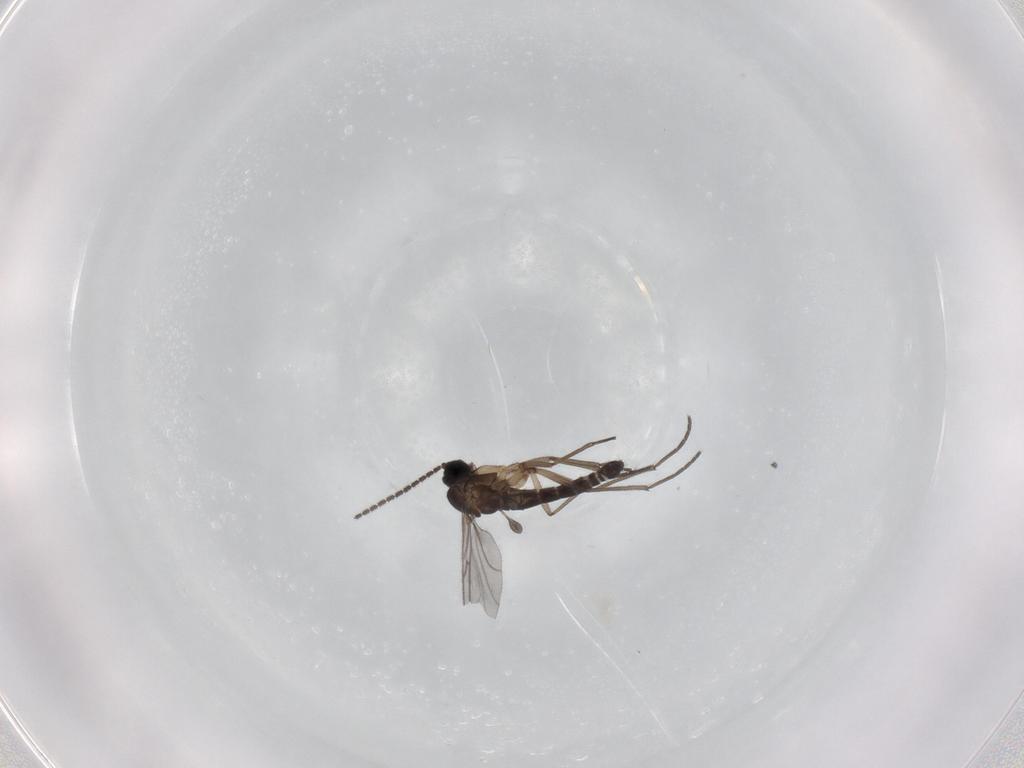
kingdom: Animalia
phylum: Arthropoda
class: Insecta
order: Diptera
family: Sciaridae
